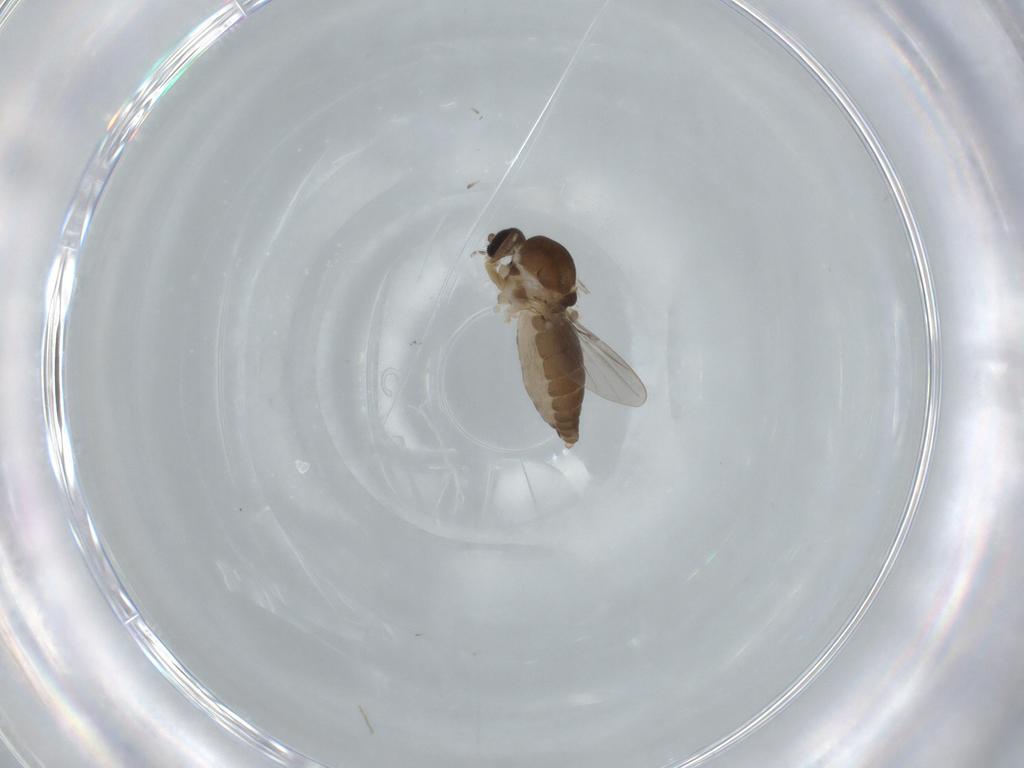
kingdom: Animalia
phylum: Arthropoda
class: Insecta
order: Diptera
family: Ceratopogonidae
